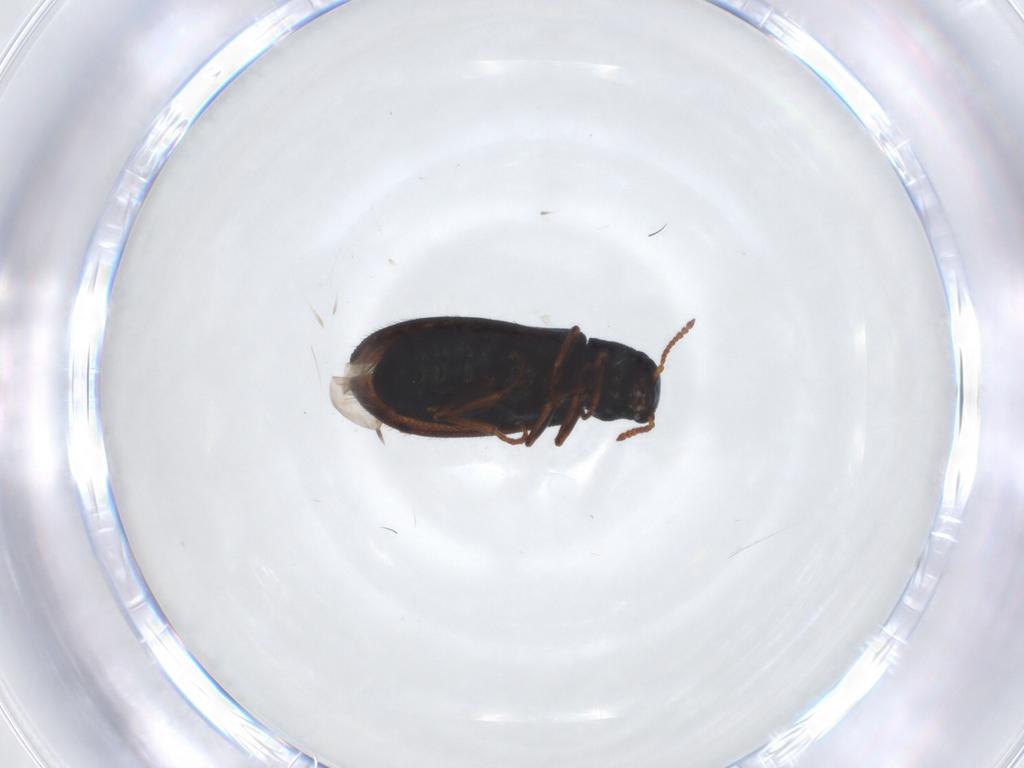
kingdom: Animalia
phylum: Arthropoda
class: Insecta
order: Coleoptera
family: Melyridae
